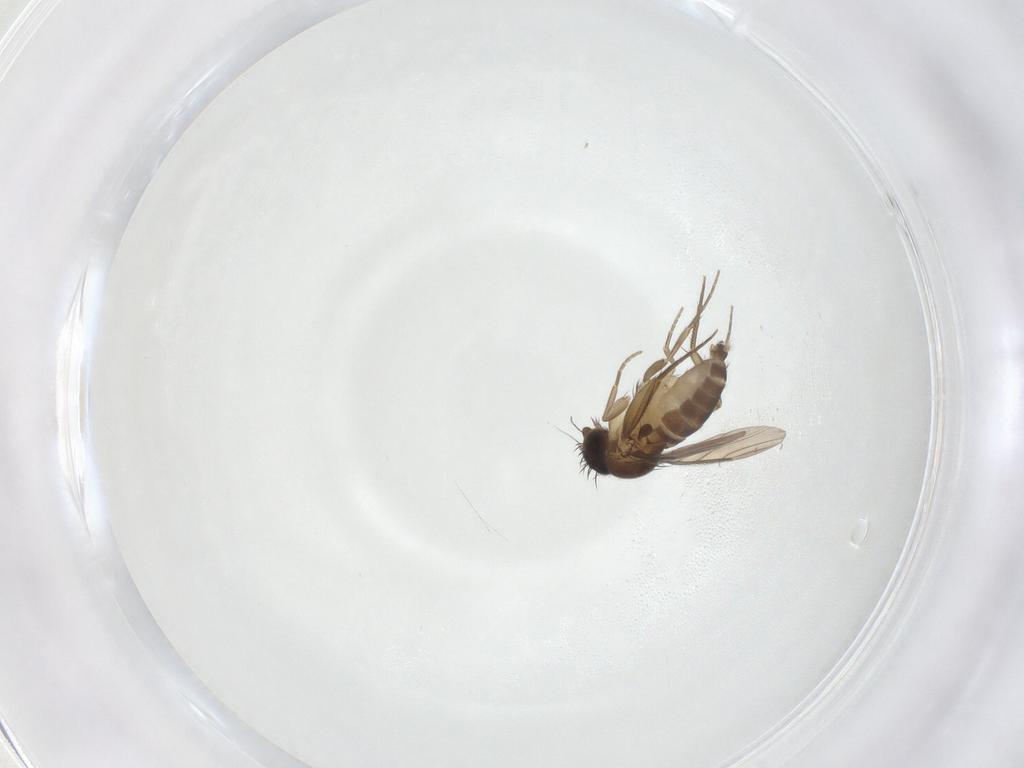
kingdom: Animalia
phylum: Arthropoda
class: Insecta
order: Diptera
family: Phoridae
